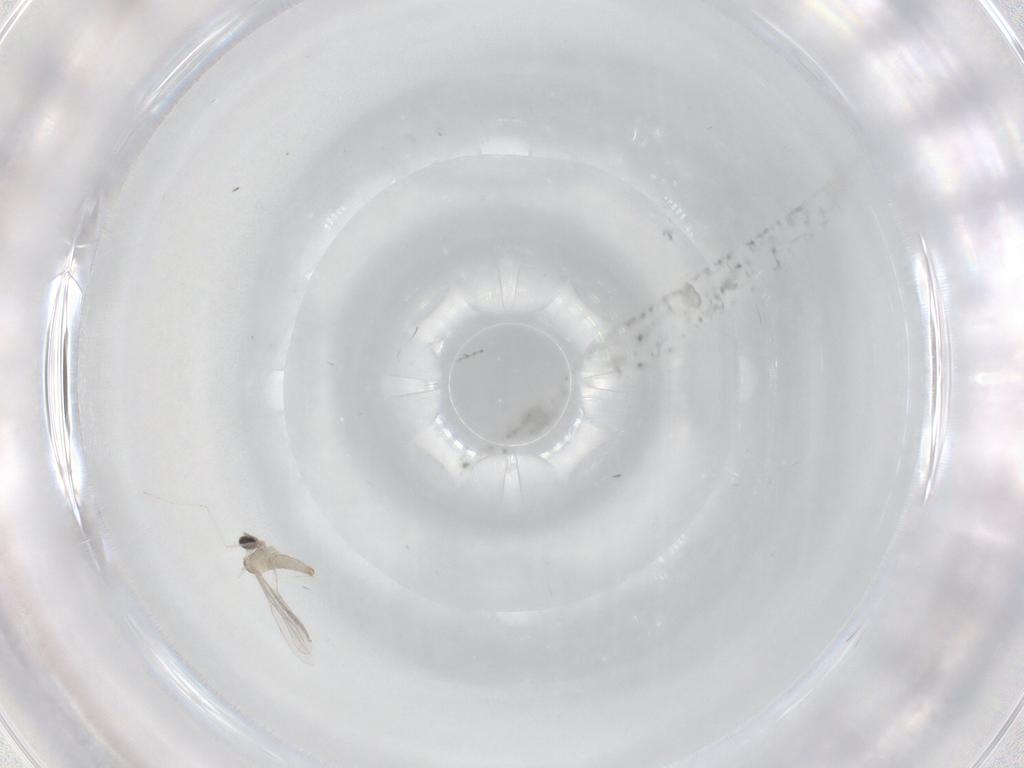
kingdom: Animalia
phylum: Arthropoda
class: Insecta
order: Diptera
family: Cecidomyiidae
